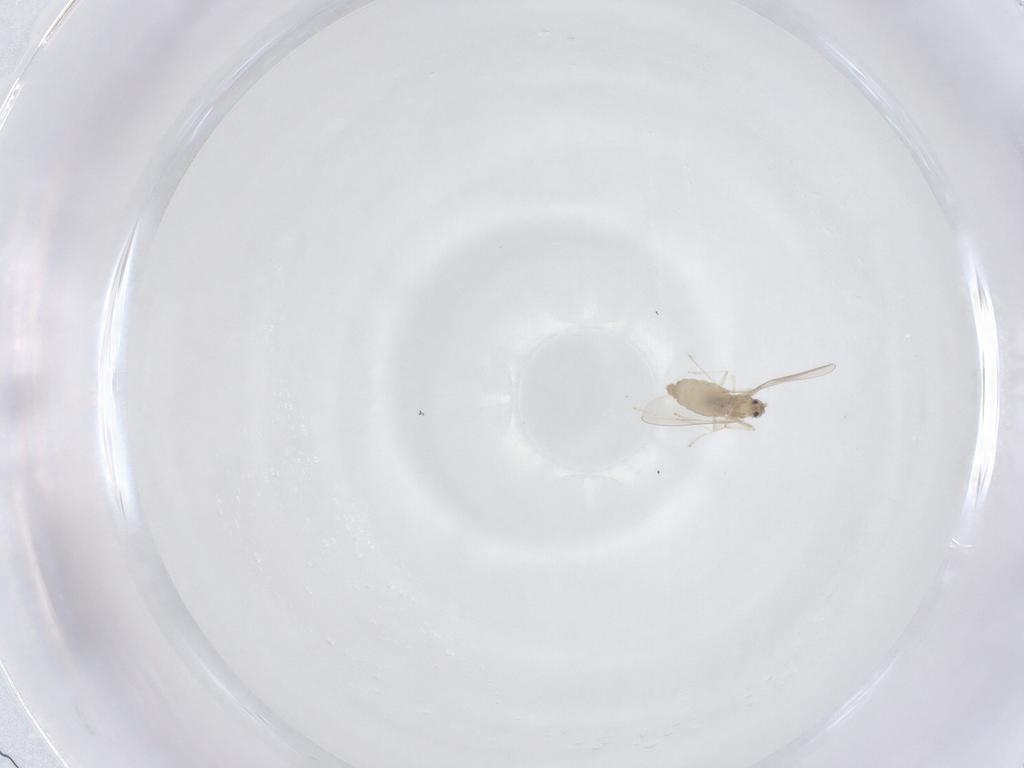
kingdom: Animalia
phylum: Arthropoda
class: Insecta
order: Diptera
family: Cecidomyiidae
